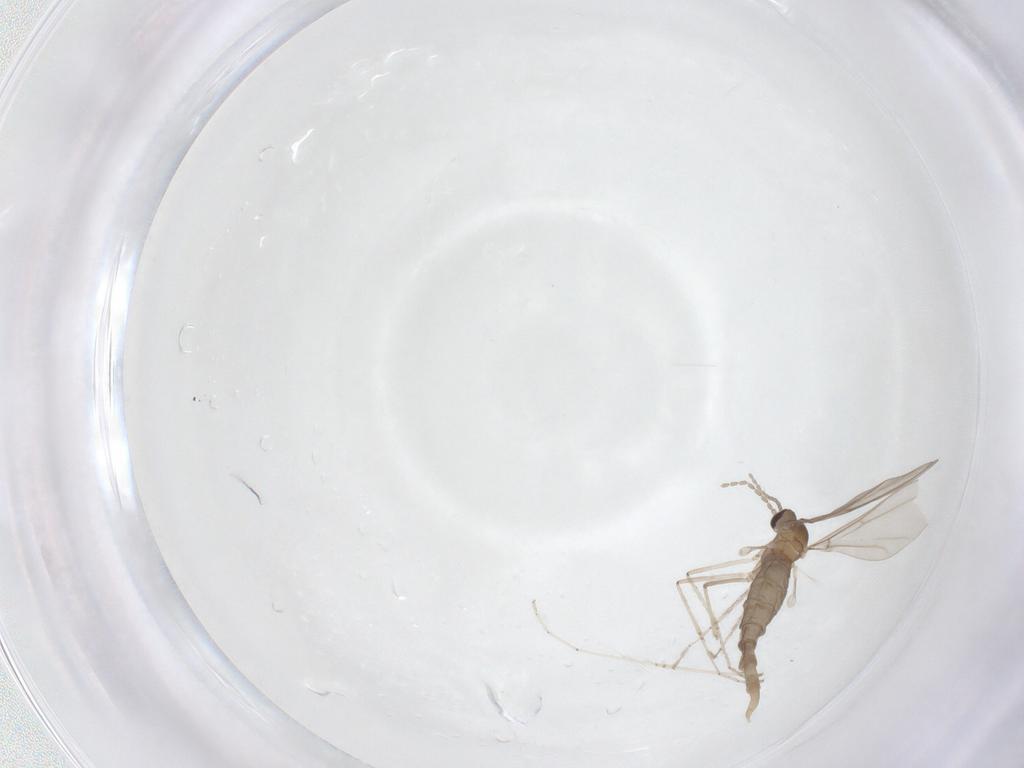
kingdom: Animalia
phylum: Arthropoda
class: Insecta
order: Diptera
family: Cecidomyiidae
